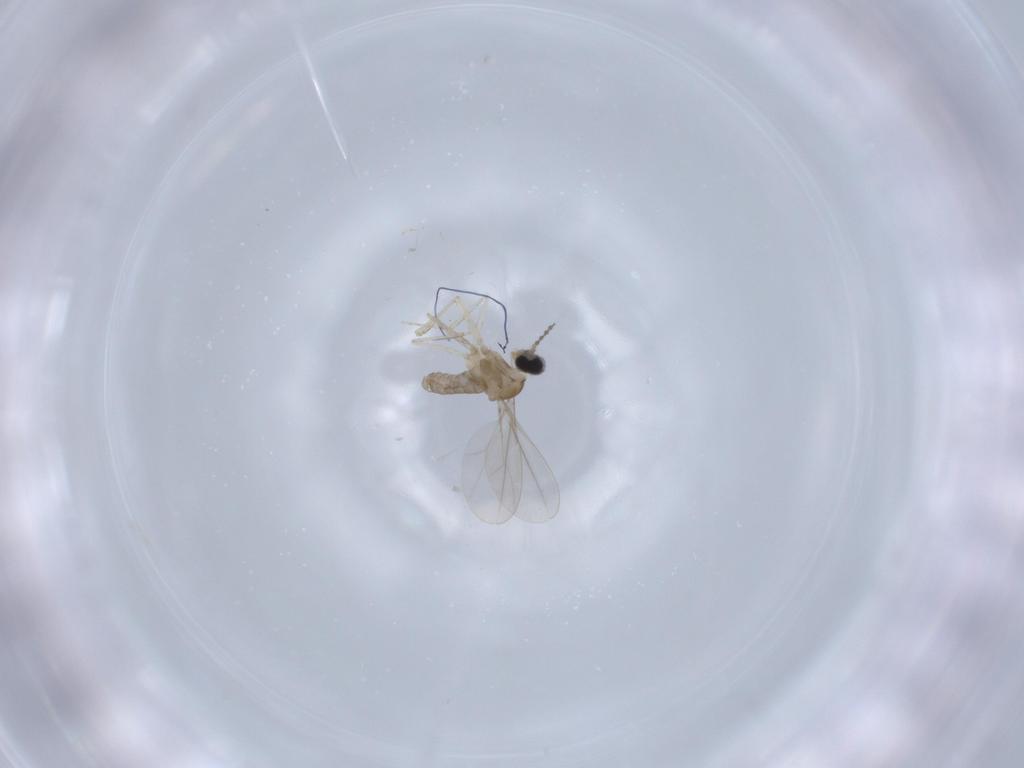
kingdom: Animalia
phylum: Arthropoda
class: Insecta
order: Diptera
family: Cecidomyiidae
